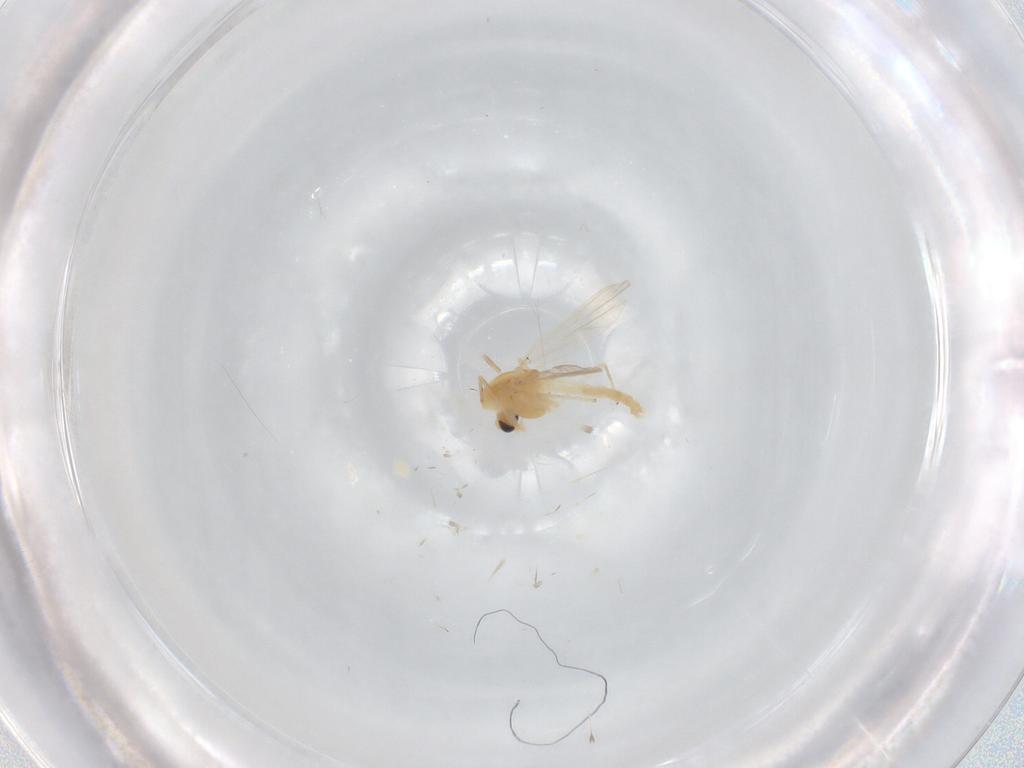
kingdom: Animalia
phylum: Arthropoda
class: Insecta
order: Diptera
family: Chironomidae
